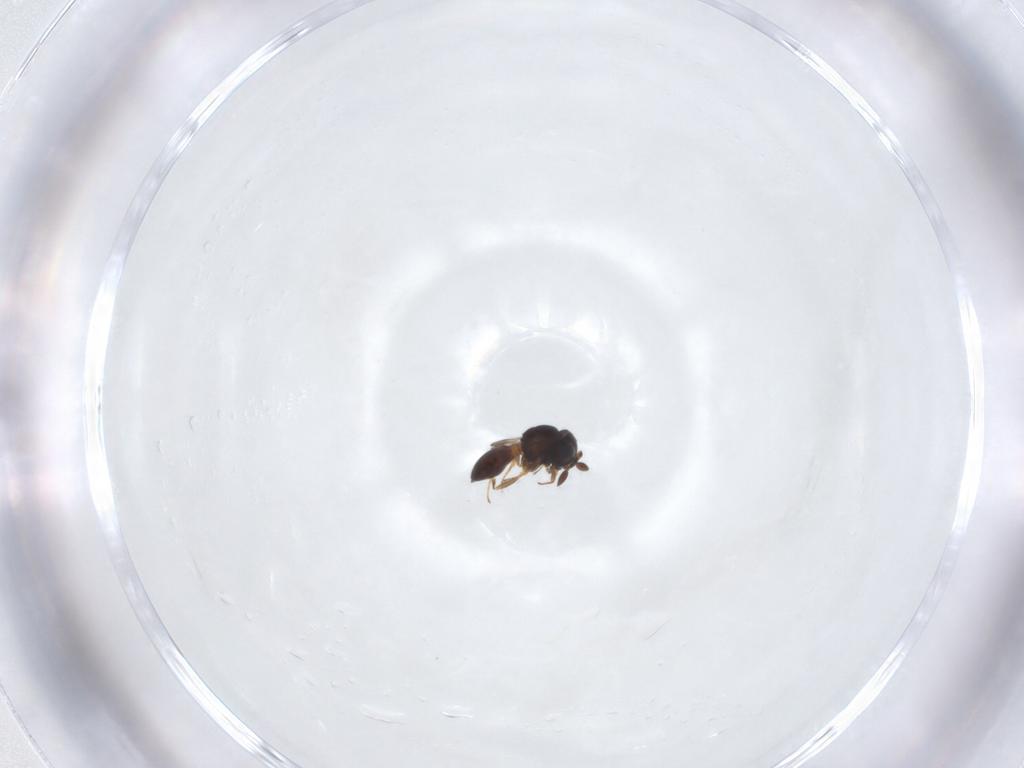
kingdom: Animalia
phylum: Arthropoda
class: Arachnida
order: Araneae
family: Pholcidae
